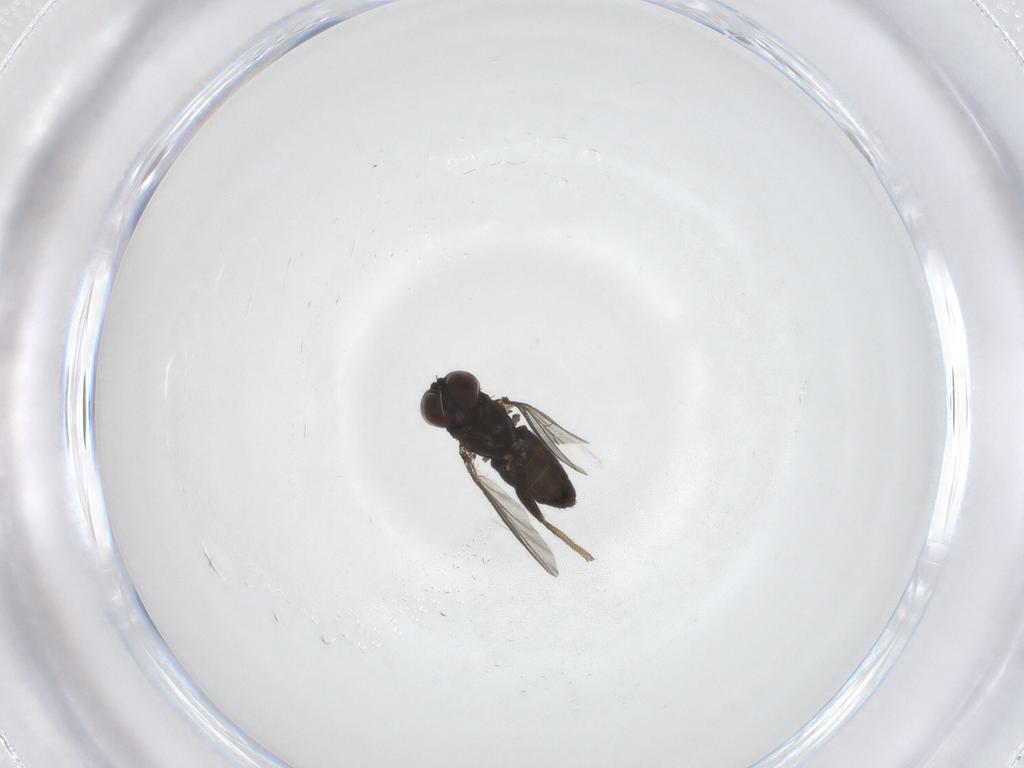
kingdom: Animalia
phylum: Arthropoda
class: Insecta
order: Diptera
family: Dolichopodidae
